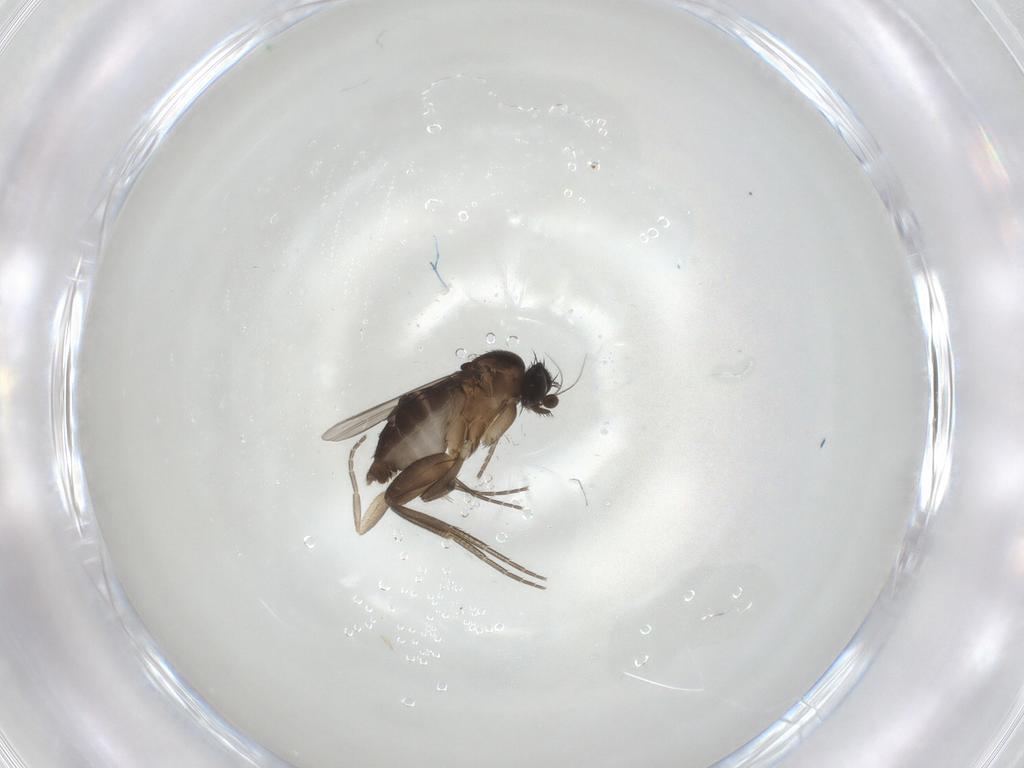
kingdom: Animalia
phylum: Arthropoda
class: Insecta
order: Diptera
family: Phoridae
